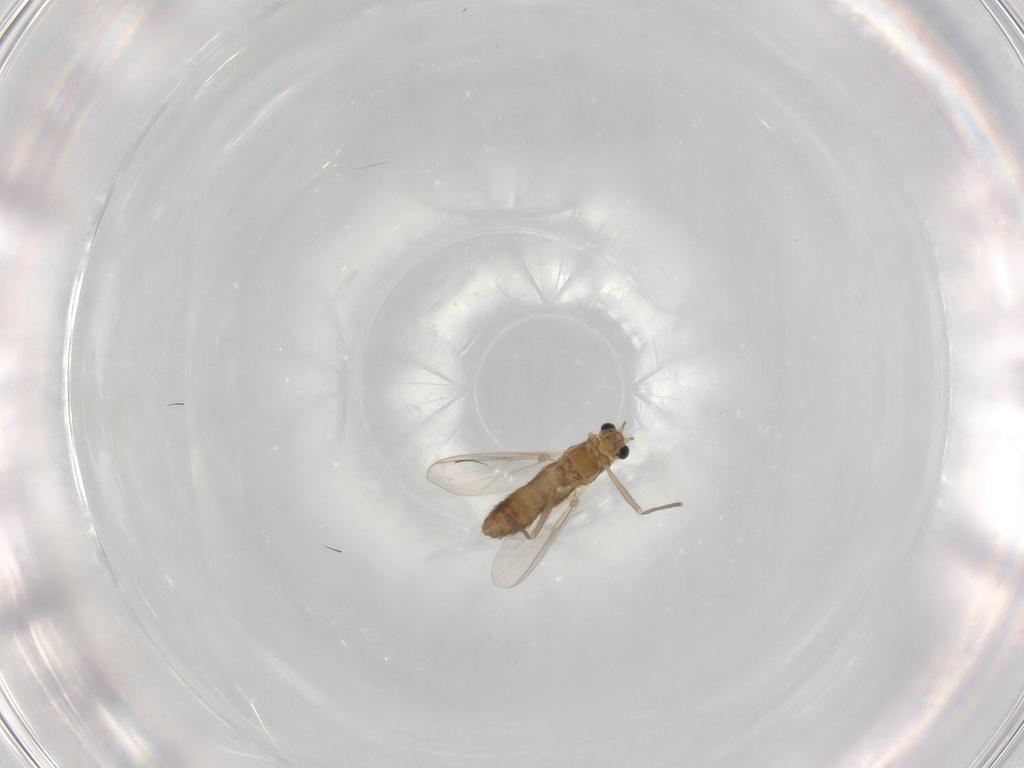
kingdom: Animalia
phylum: Arthropoda
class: Insecta
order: Diptera
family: Chironomidae
